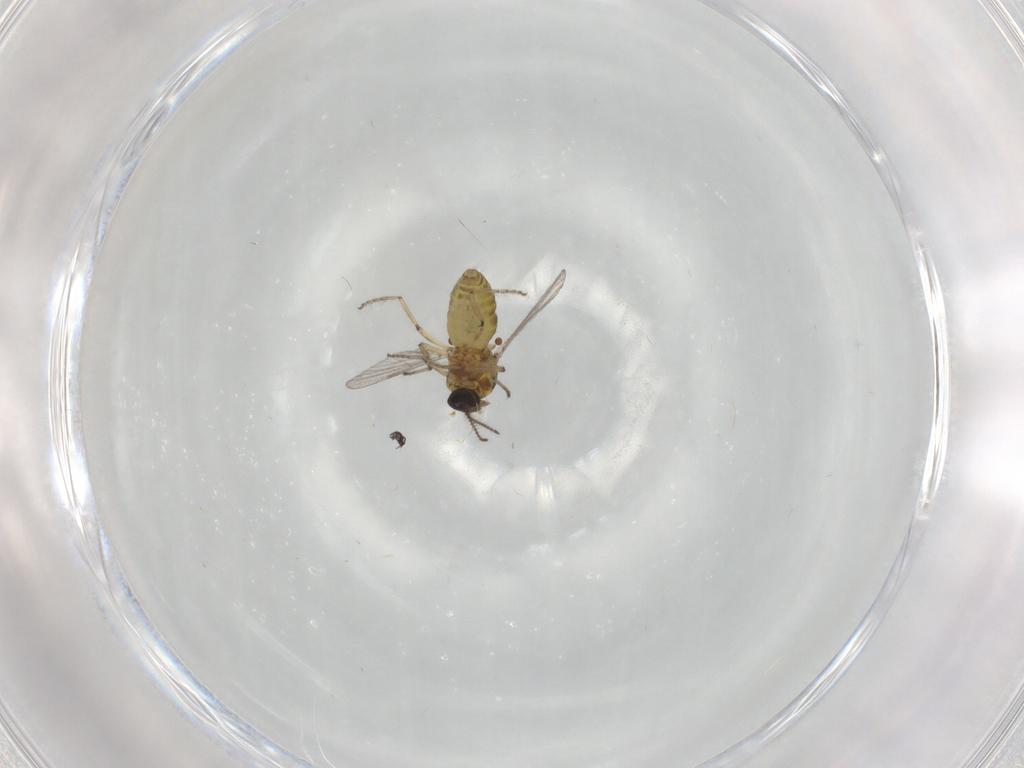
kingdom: Animalia
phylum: Arthropoda
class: Insecta
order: Diptera
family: Ceratopogonidae
